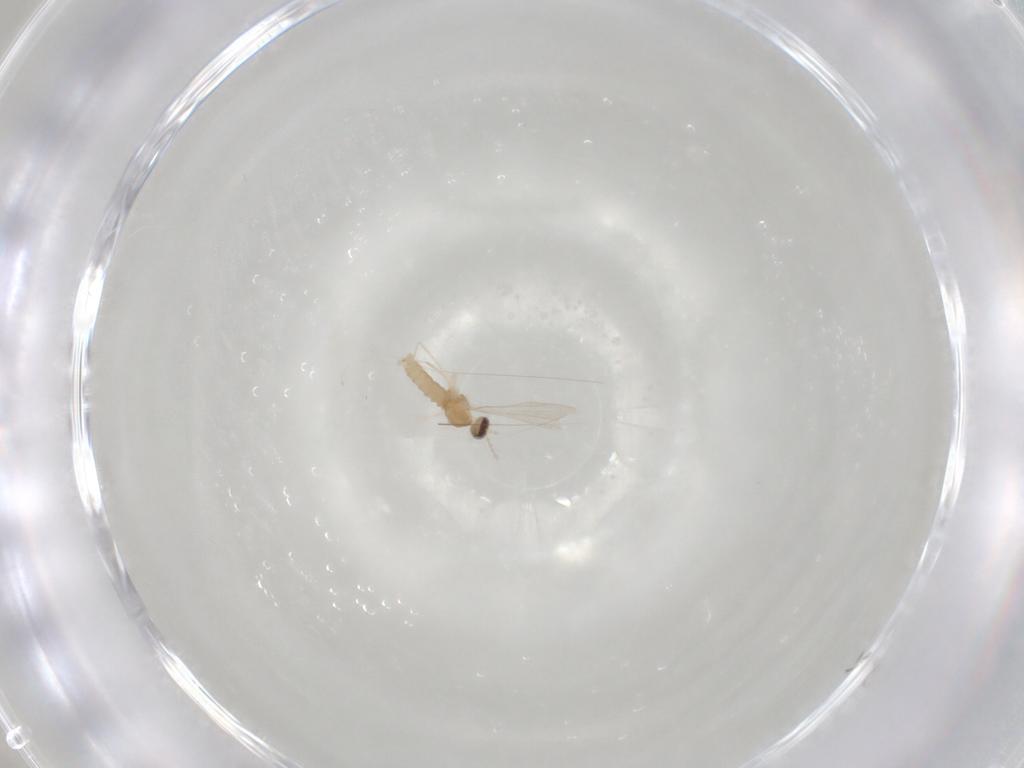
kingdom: Animalia
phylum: Arthropoda
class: Insecta
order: Diptera
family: Cecidomyiidae
